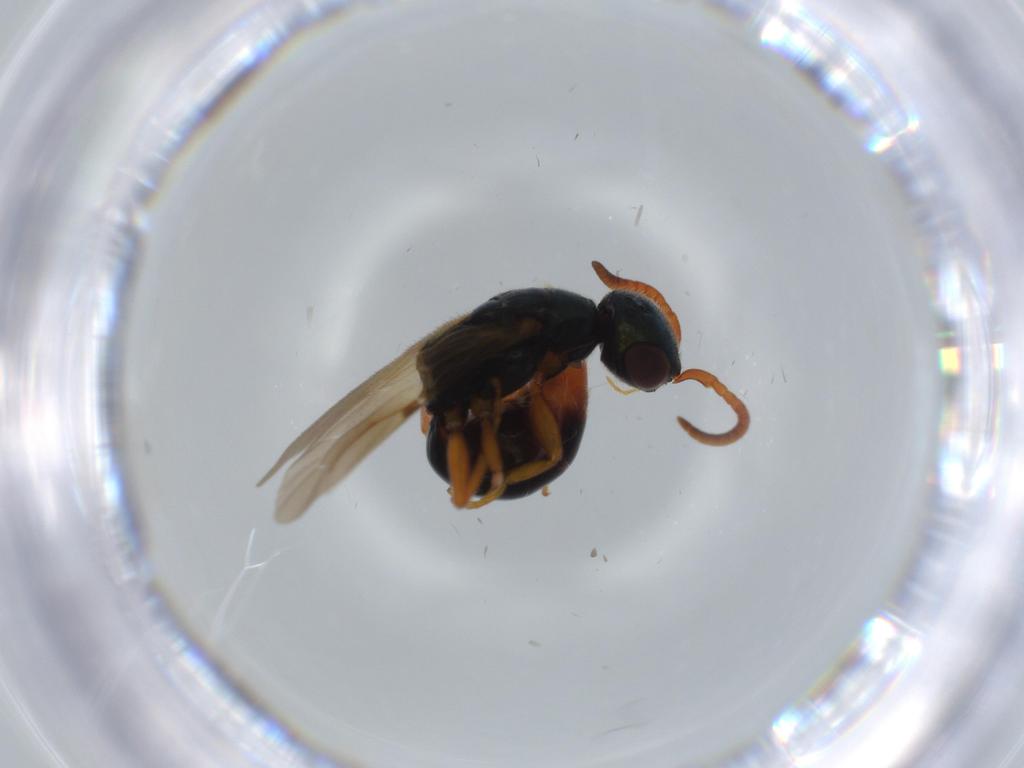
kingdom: Animalia
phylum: Arthropoda
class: Insecta
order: Hymenoptera
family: Bethylidae
